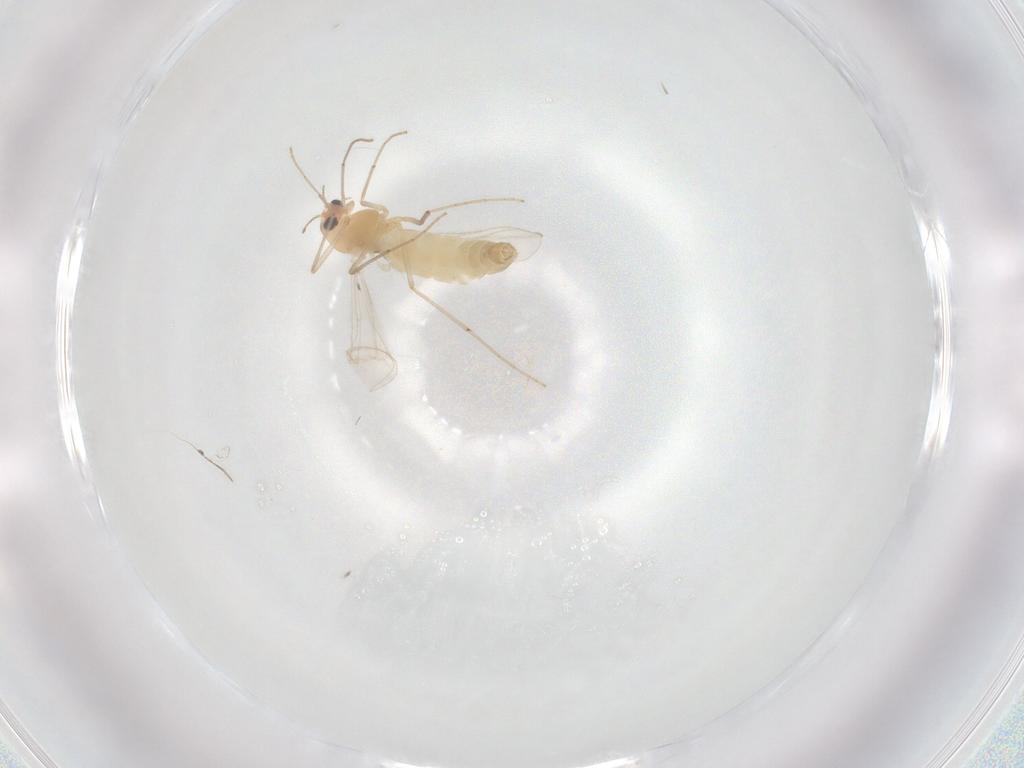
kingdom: Animalia
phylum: Arthropoda
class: Insecta
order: Diptera
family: Chironomidae
